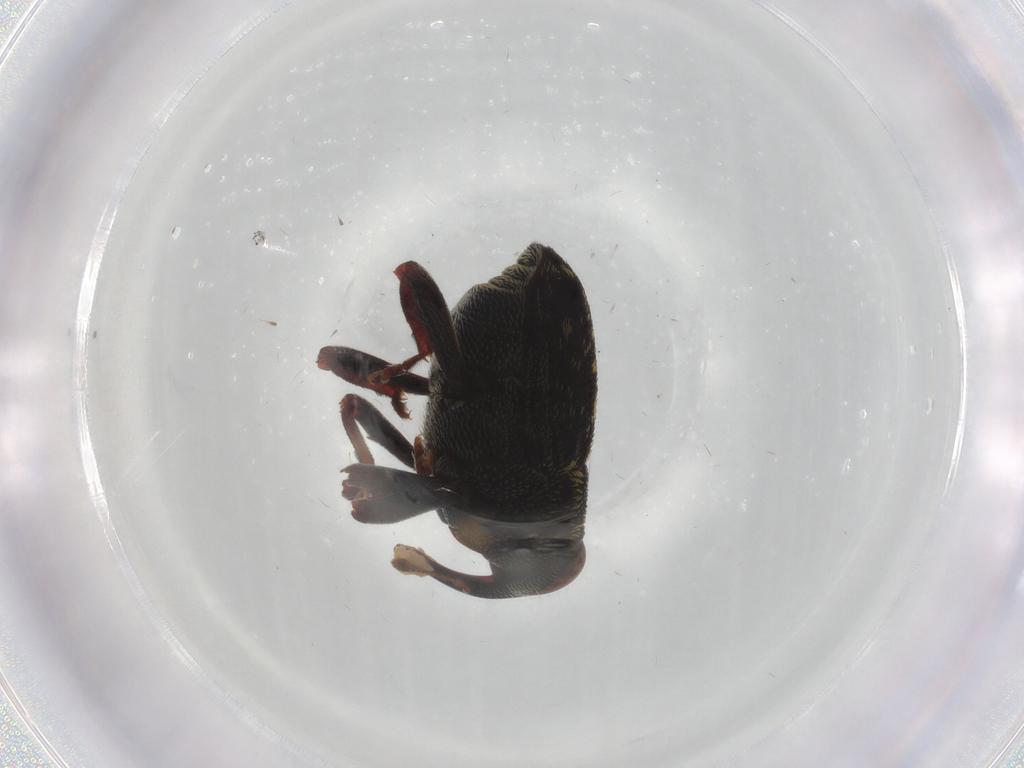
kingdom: Animalia
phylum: Arthropoda
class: Insecta
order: Coleoptera
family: Curculionidae
